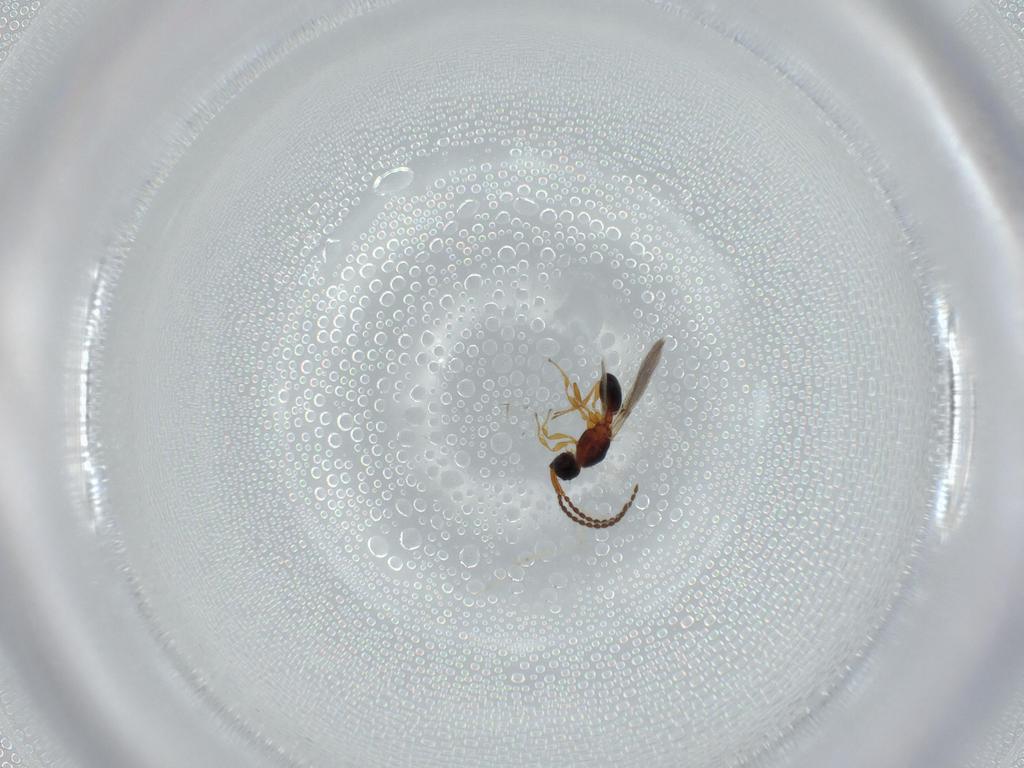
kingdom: Animalia
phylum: Arthropoda
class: Insecta
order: Hymenoptera
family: Diapriidae
